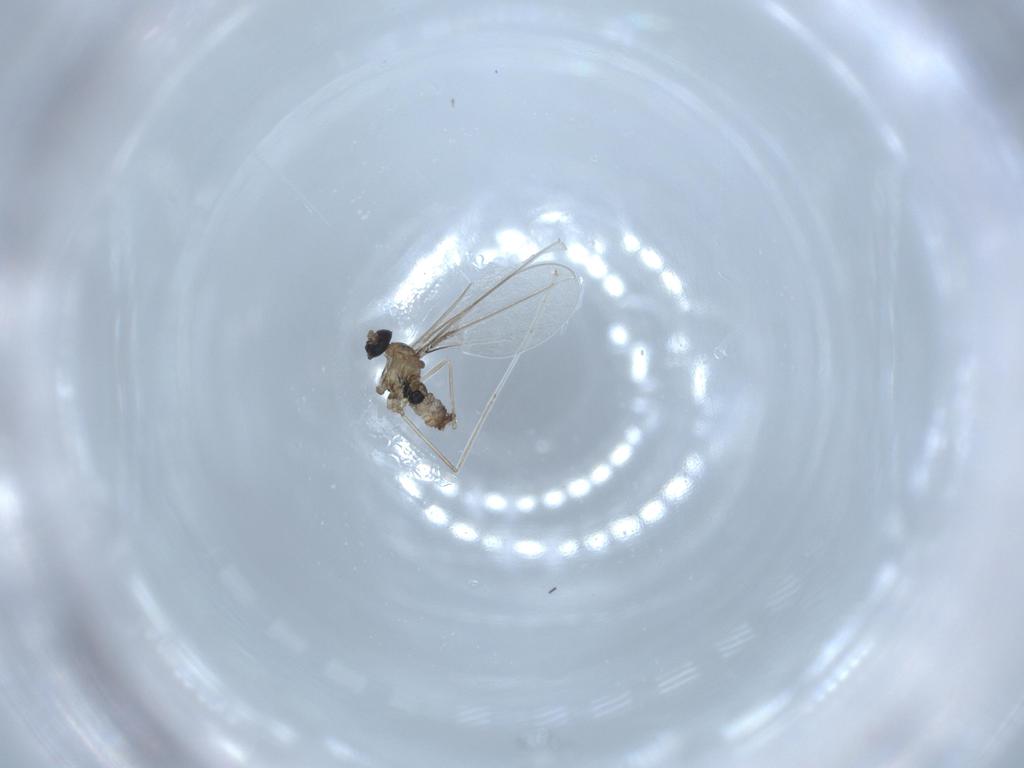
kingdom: Animalia
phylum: Arthropoda
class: Insecta
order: Diptera
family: Cecidomyiidae
